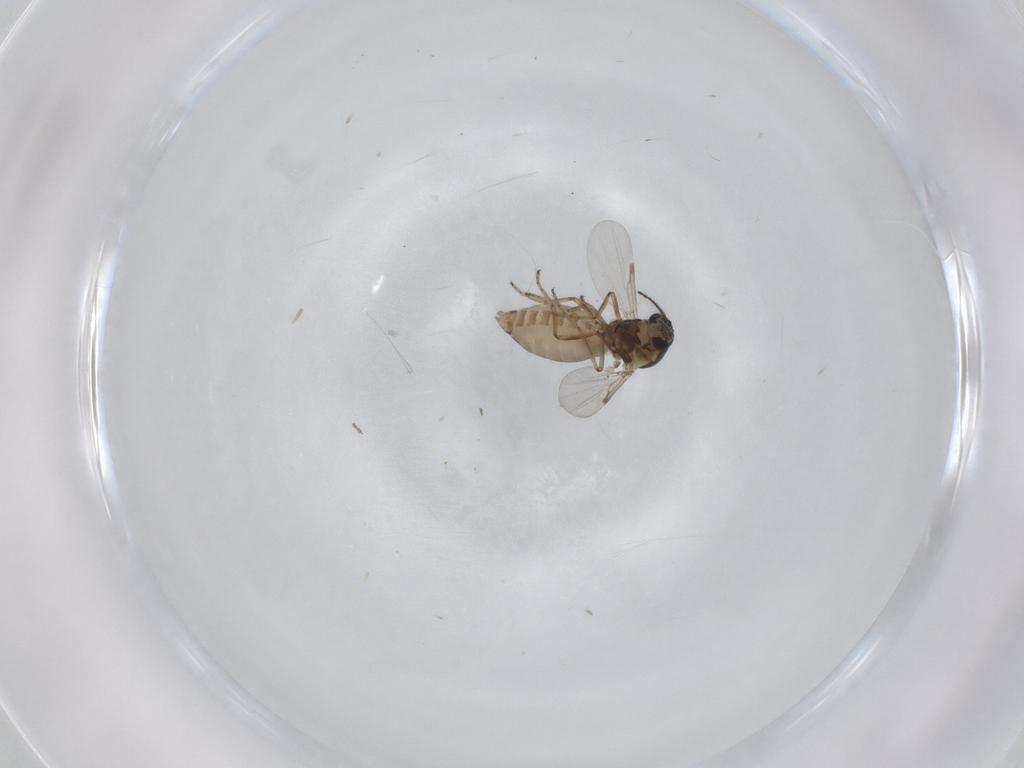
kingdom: Animalia
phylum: Arthropoda
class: Insecta
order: Diptera
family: Ceratopogonidae
